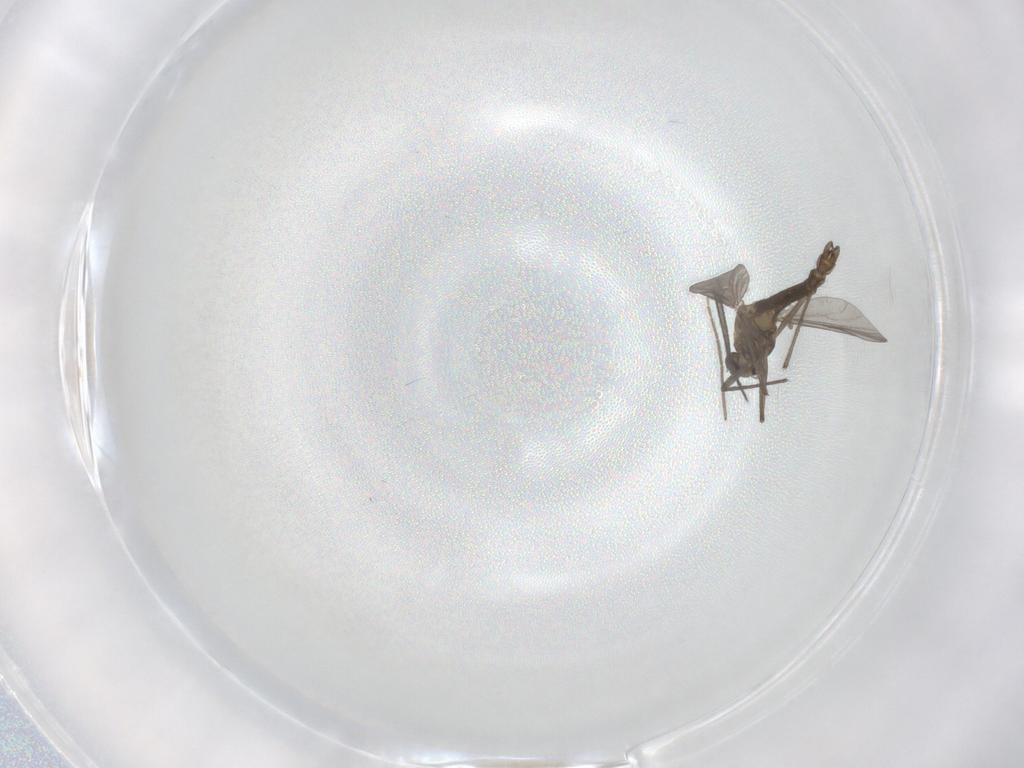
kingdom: Animalia
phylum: Arthropoda
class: Insecta
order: Diptera
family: Chironomidae
